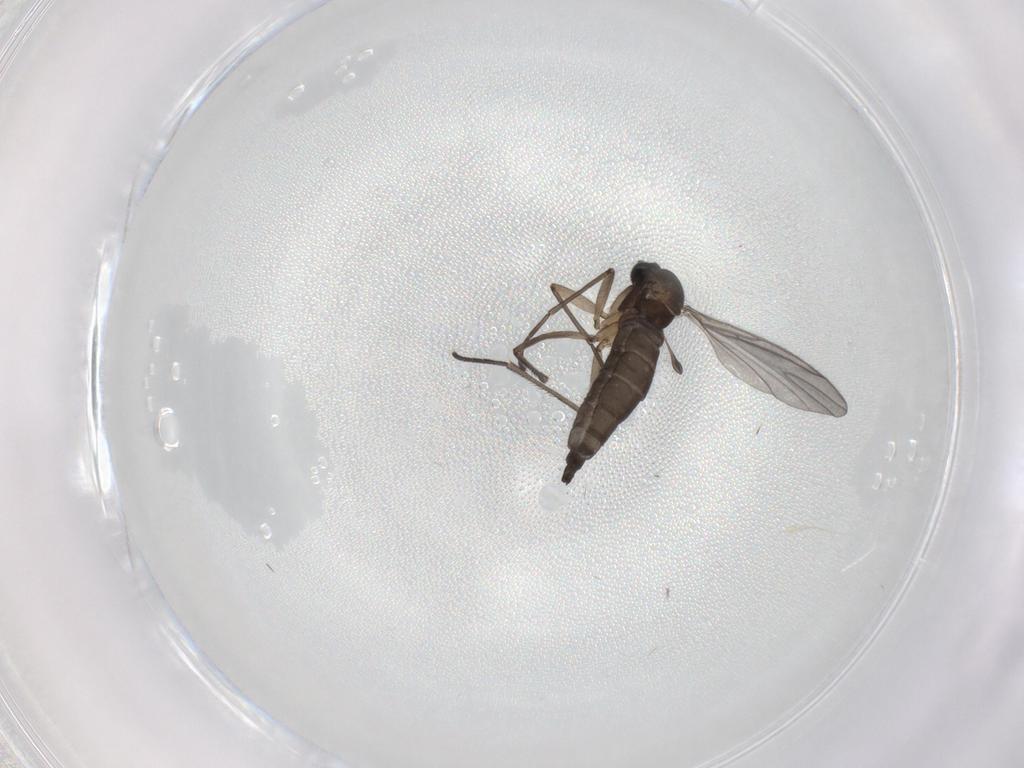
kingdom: Animalia
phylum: Arthropoda
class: Insecta
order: Diptera
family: Sciaridae
